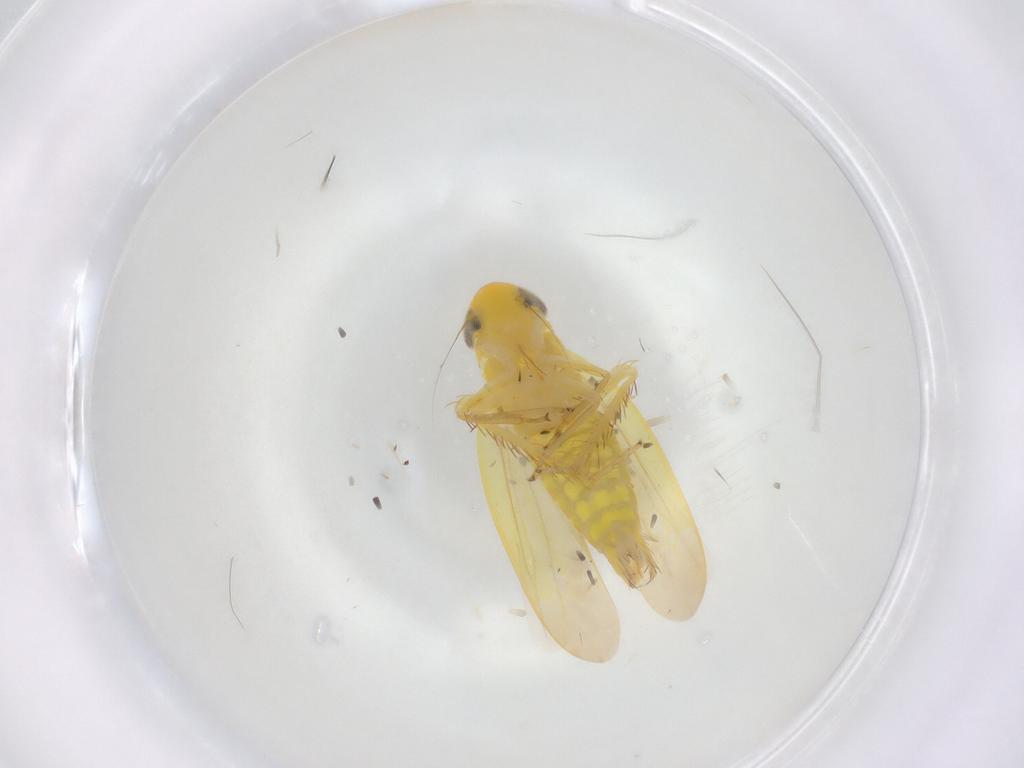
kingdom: Animalia
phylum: Arthropoda
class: Insecta
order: Hemiptera
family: Cicadellidae
